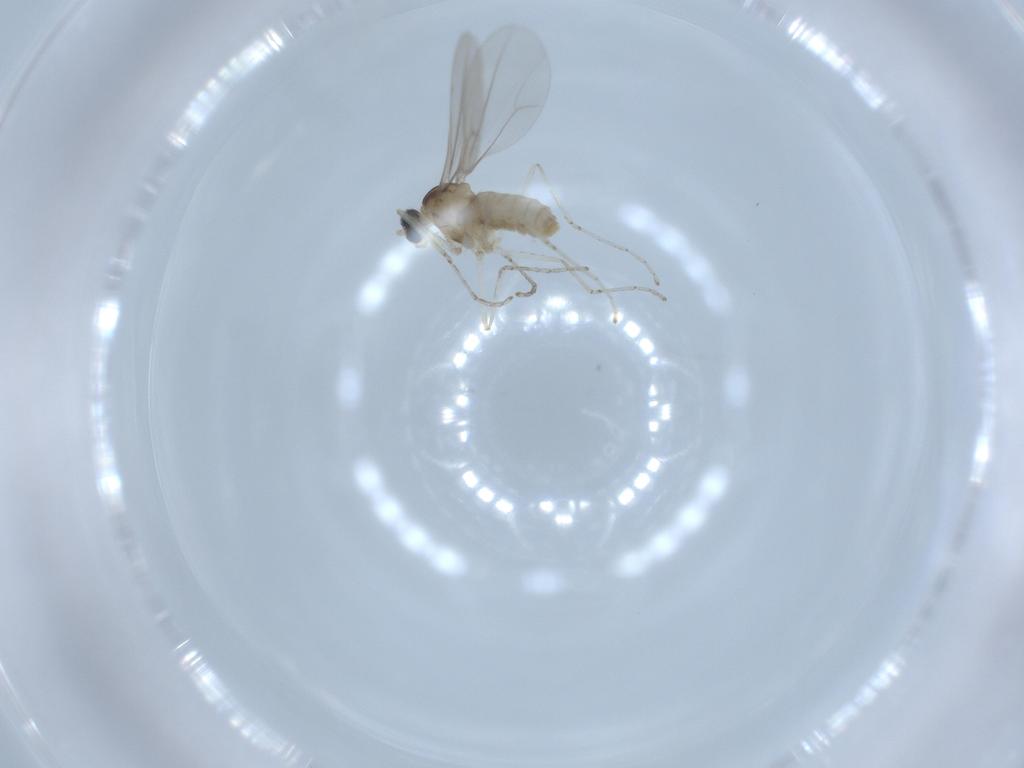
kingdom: Animalia
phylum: Arthropoda
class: Insecta
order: Diptera
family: Cecidomyiidae
